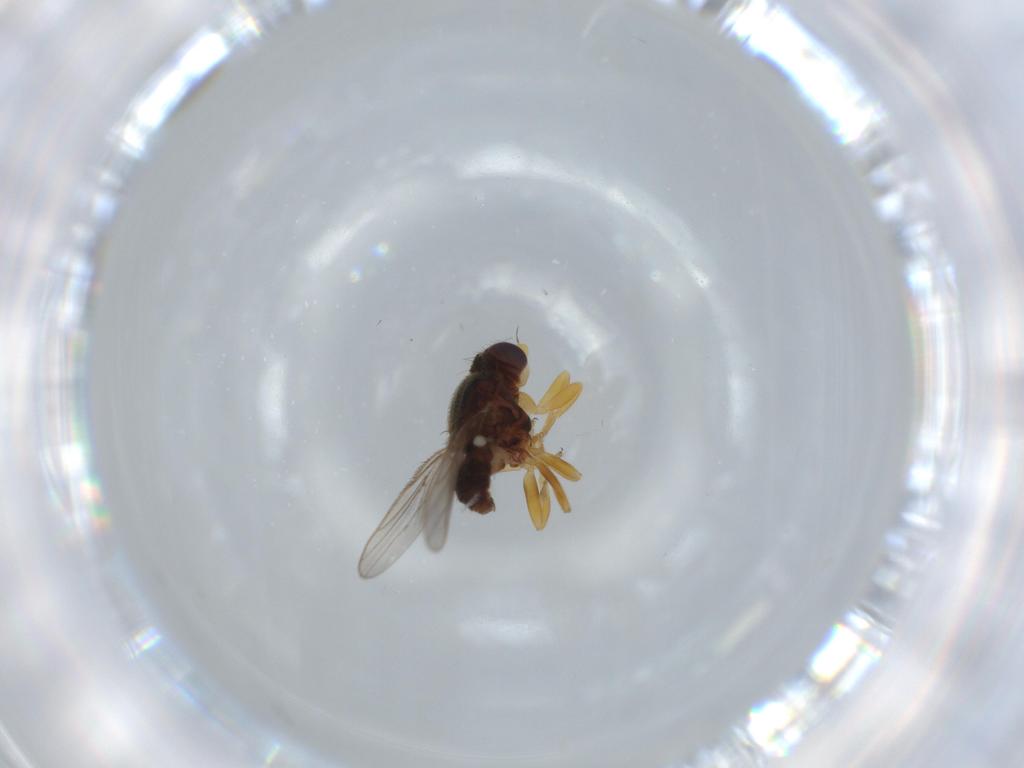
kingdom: Animalia
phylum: Arthropoda
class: Insecta
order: Diptera
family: Chloropidae
